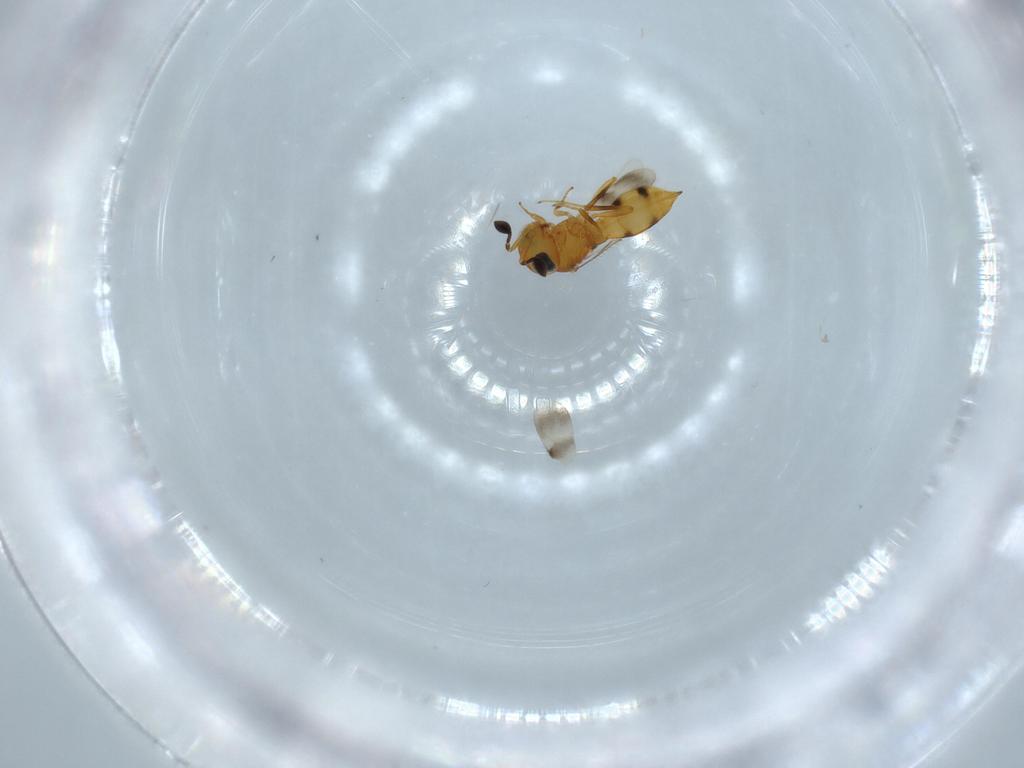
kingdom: Animalia
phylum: Arthropoda
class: Insecta
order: Hymenoptera
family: Scelionidae
